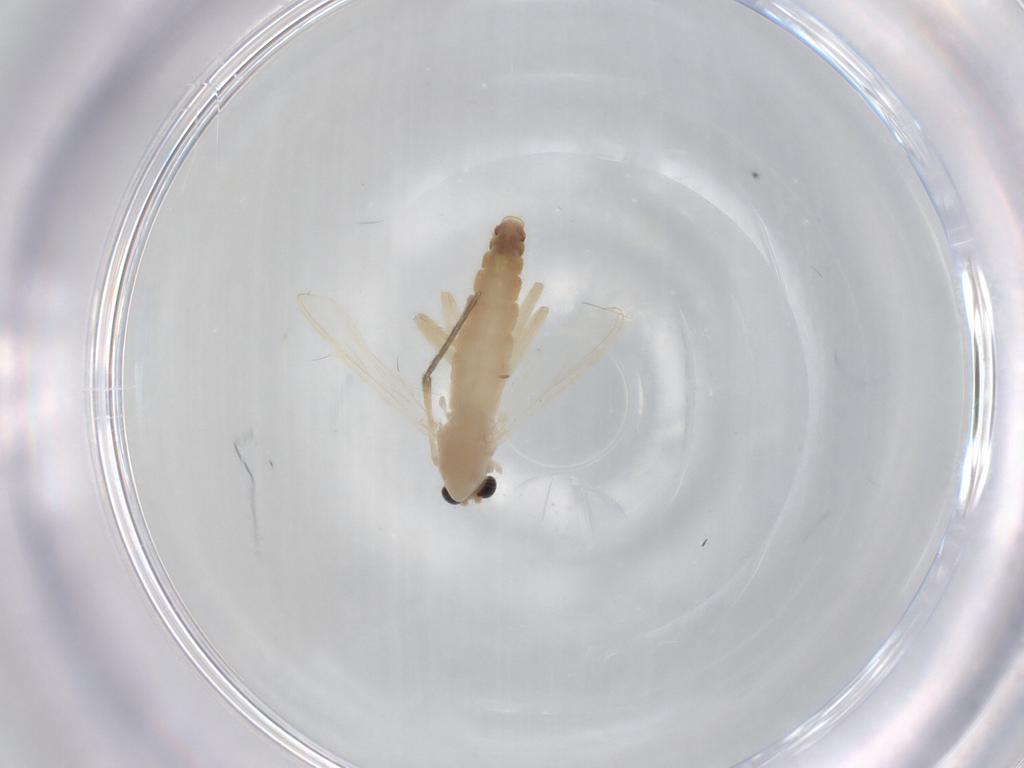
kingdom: Animalia
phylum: Arthropoda
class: Insecta
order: Diptera
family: Chironomidae
